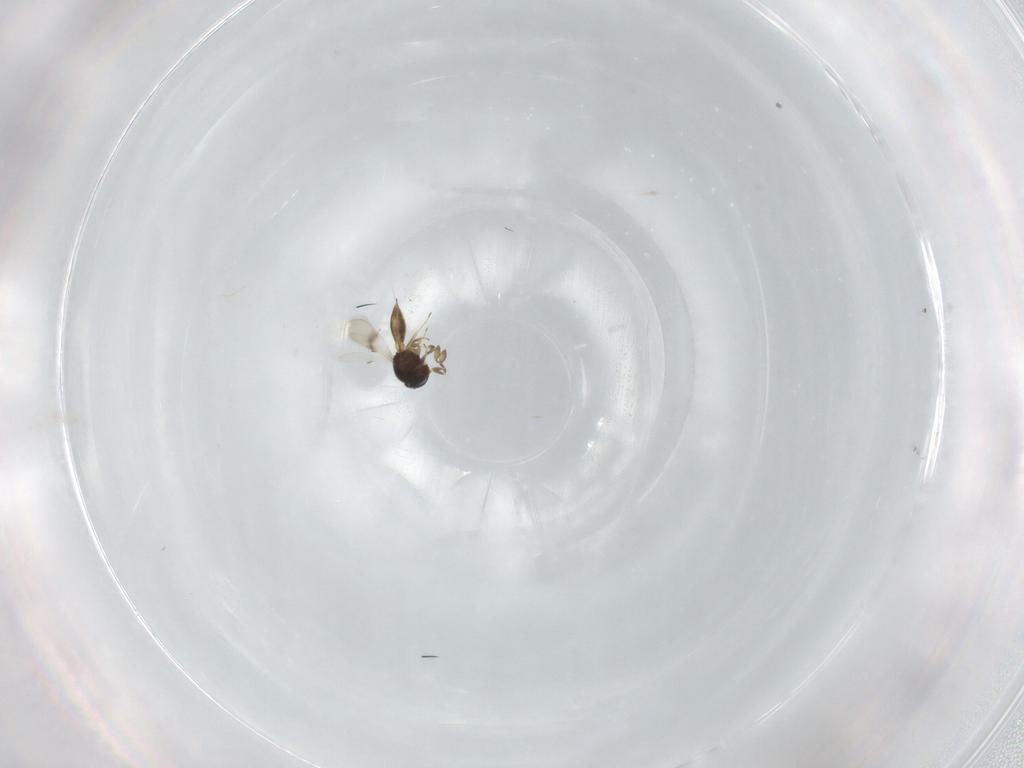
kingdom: Animalia
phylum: Arthropoda
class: Insecta
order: Hymenoptera
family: Scelionidae
